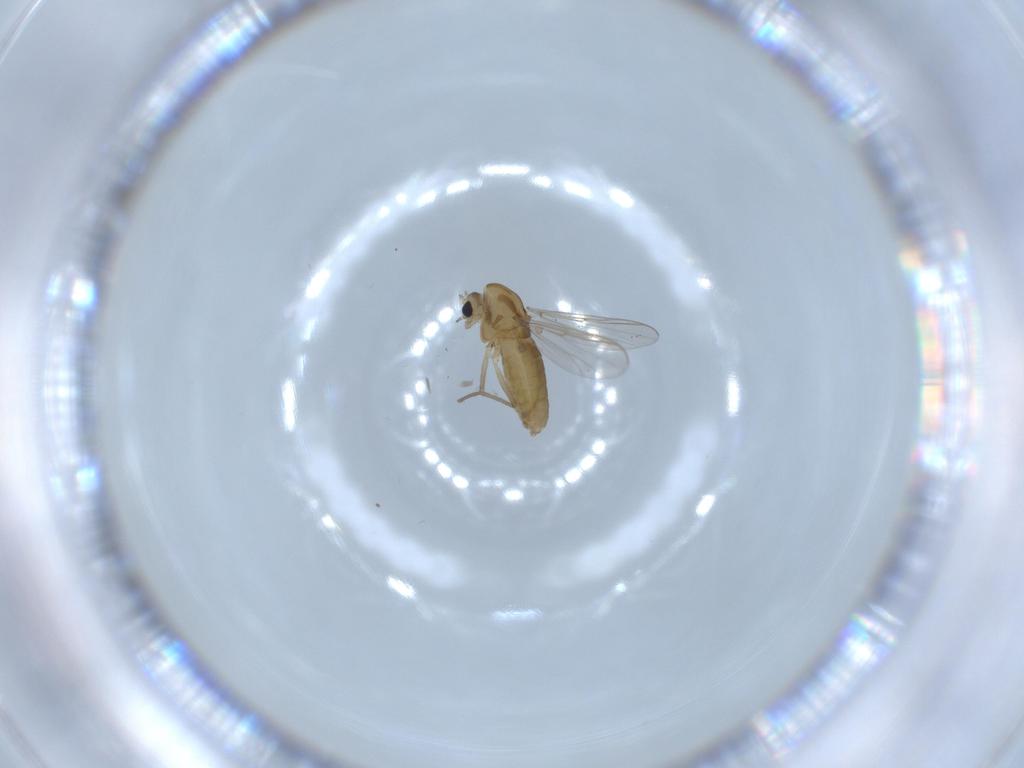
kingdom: Animalia
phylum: Arthropoda
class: Insecta
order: Diptera
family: Chironomidae
